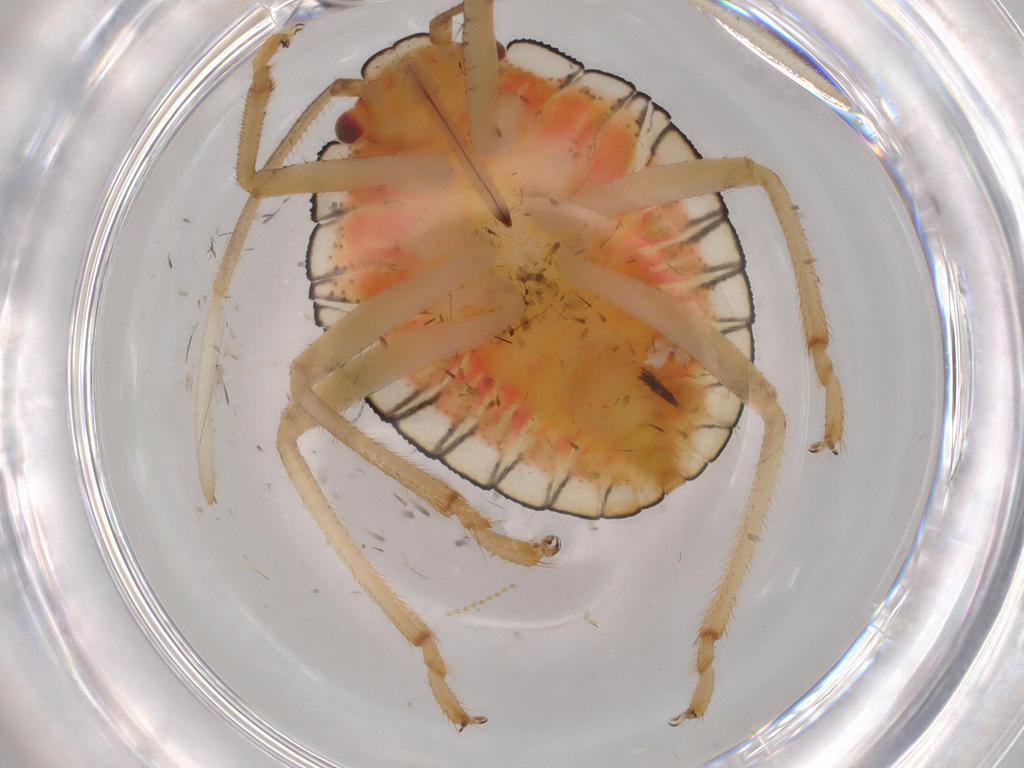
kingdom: Animalia
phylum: Arthropoda
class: Insecta
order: Hemiptera
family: Pentatomidae
